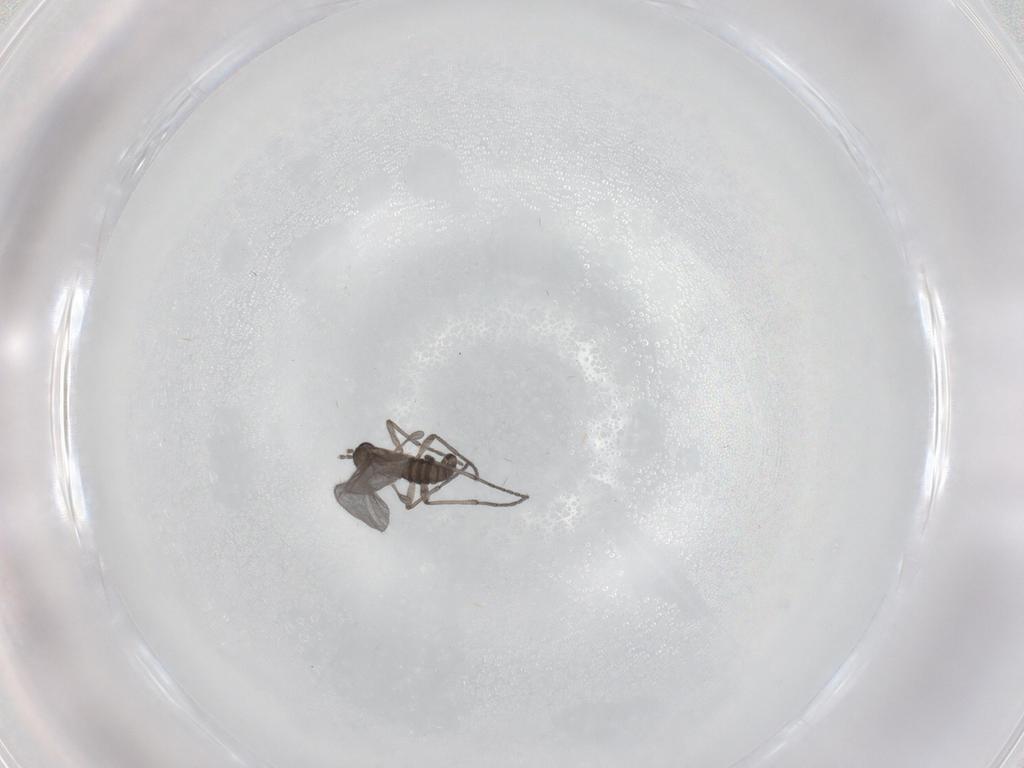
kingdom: Animalia
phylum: Arthropoda
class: Insecta
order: Diptera
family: Sciaridae
